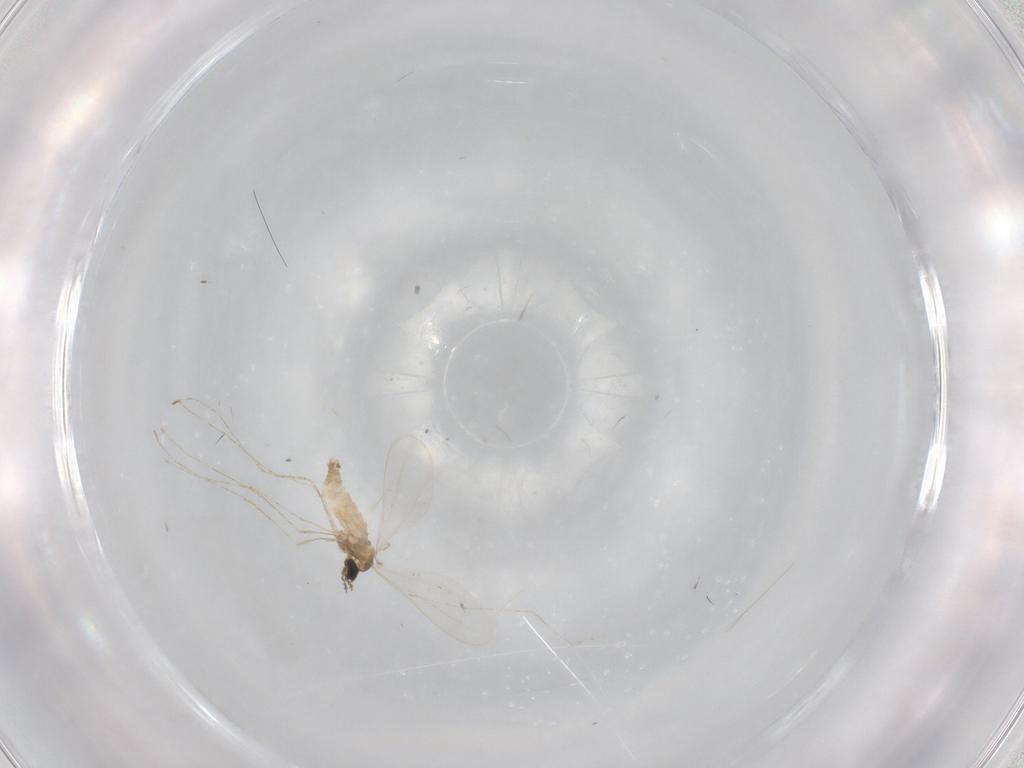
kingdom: Animalia
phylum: Arthropoda
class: Insecta
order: Diptera
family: Cecidomyiidae
